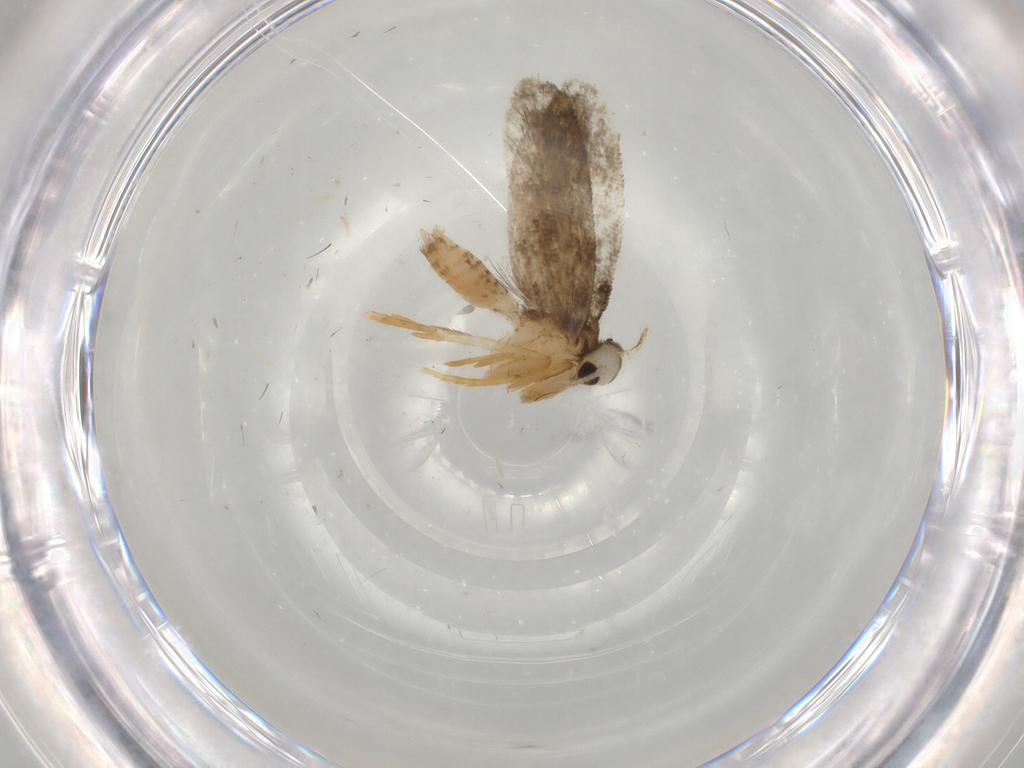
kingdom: Animalia
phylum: Arthropoda
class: Insecta
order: Lepidoptera
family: Psychidae
